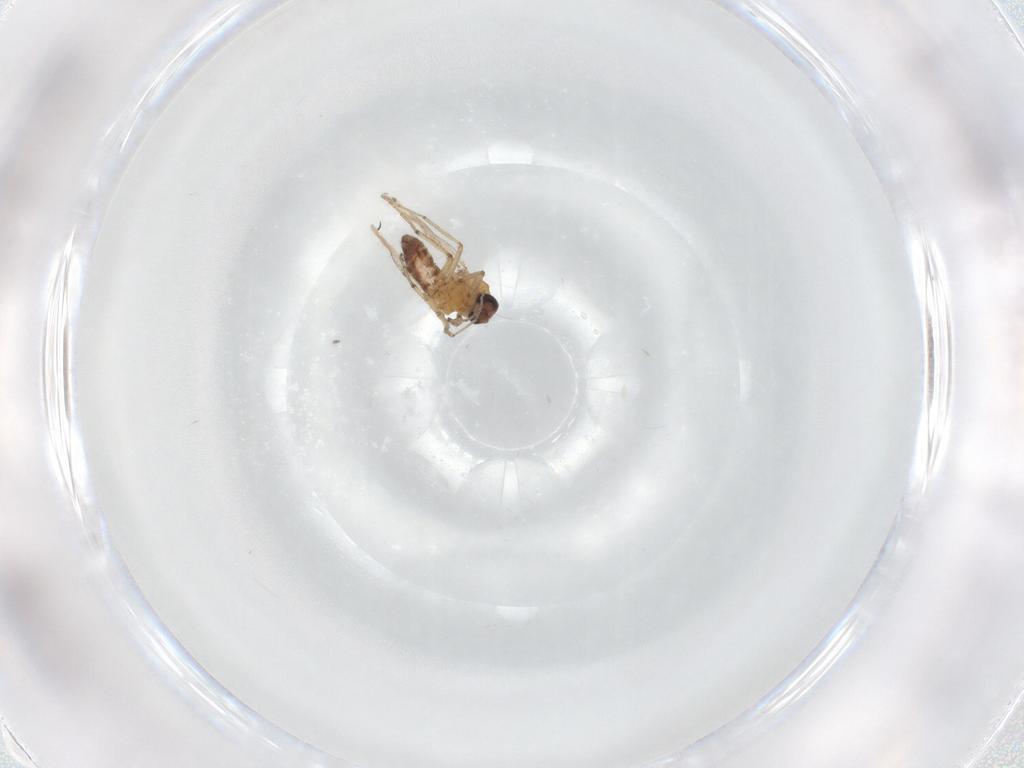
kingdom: Animalia
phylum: Arthropoda
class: Insecta
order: Diptera
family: Ceratopogonidae
